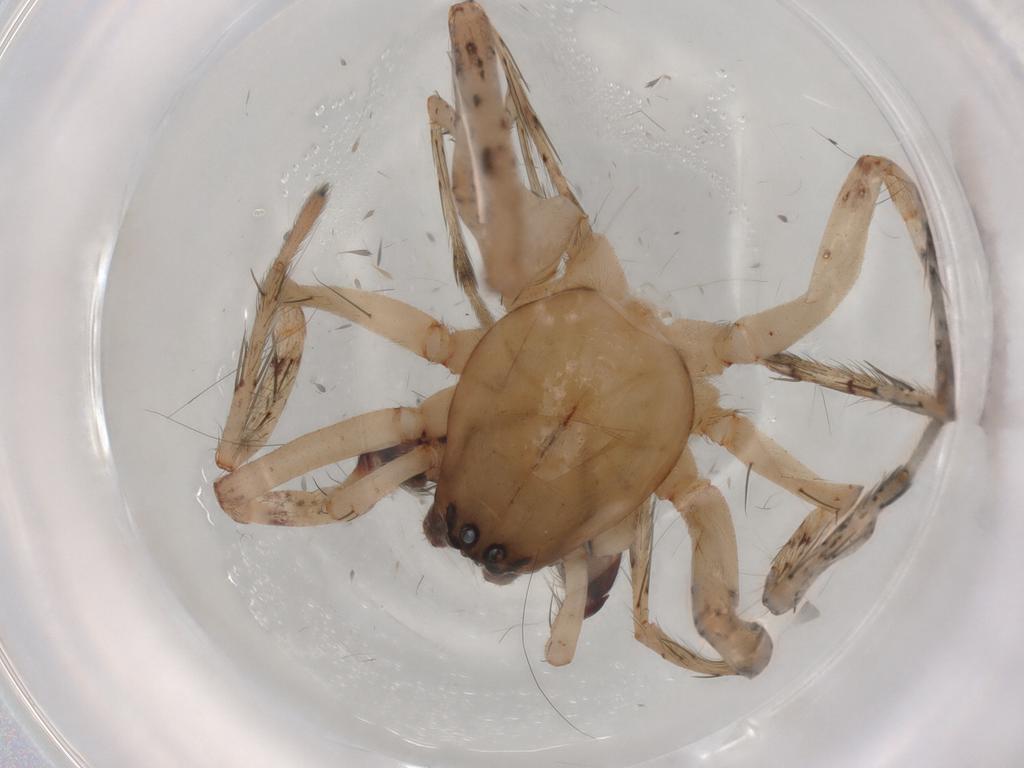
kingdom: Animalia
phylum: Arthropoda
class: Arachnida
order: Araneae
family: Anyphaenidae
